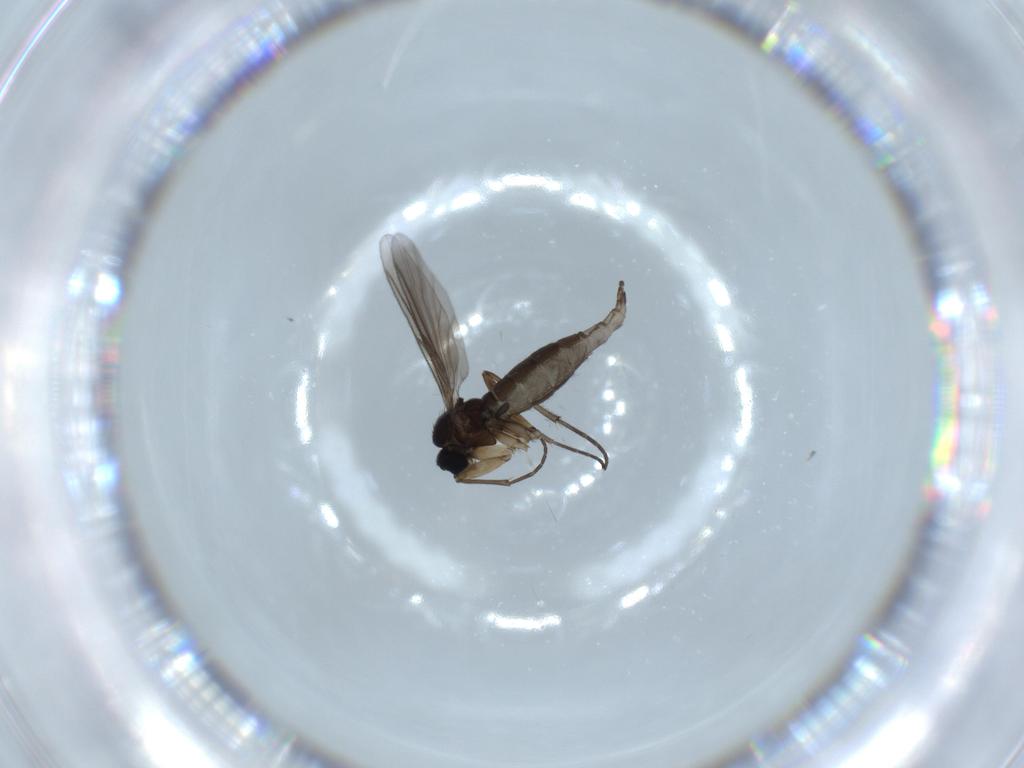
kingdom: Animalia
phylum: Arthropoda
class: Insecta
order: Diptera
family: Sciaridae
